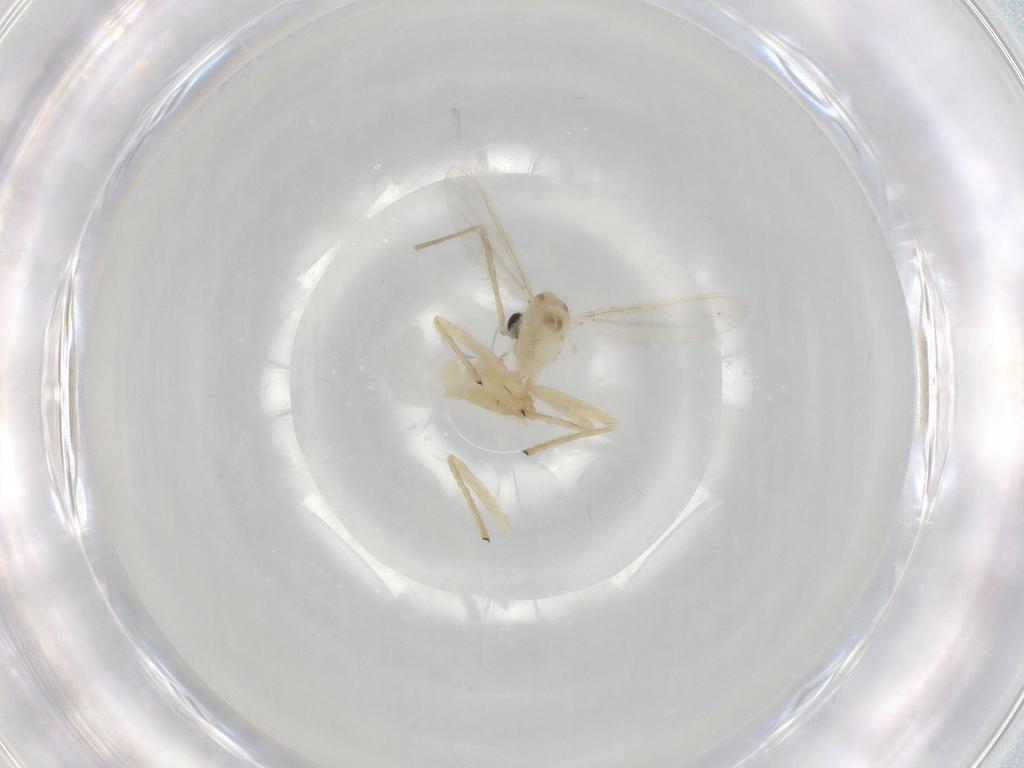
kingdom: Animalia
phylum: Arthropoda
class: Insecta
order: Diptera
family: Chironomidae
